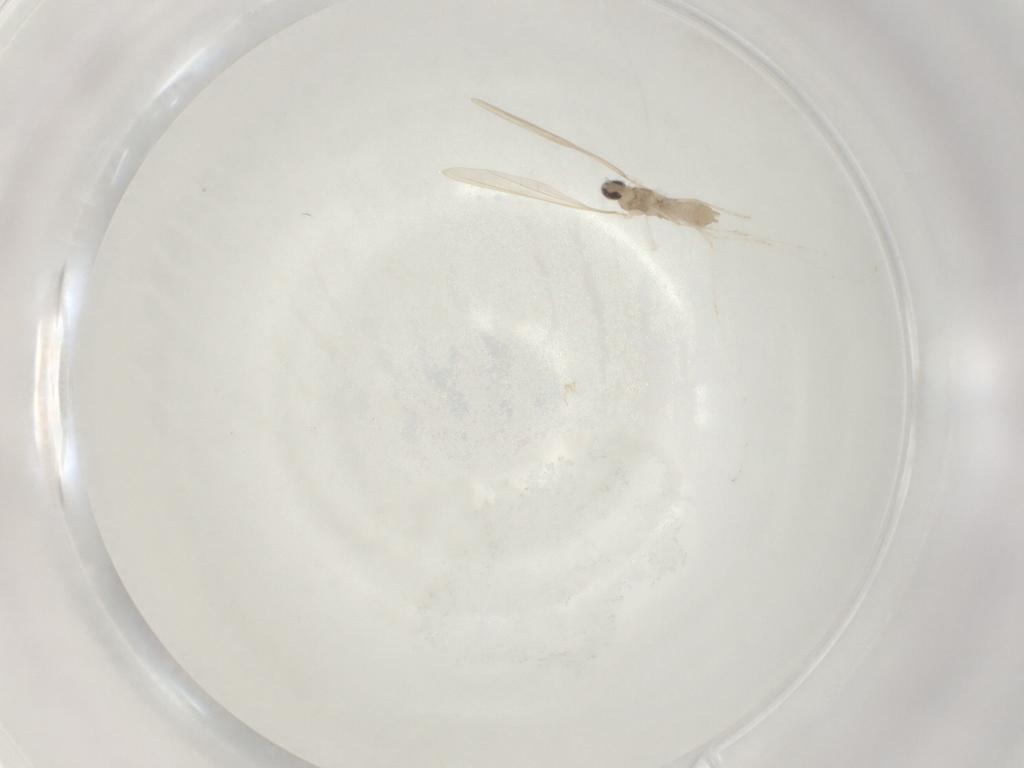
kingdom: Animalia
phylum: Arthropoda
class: Insecta
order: Diptera
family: Cecidomyiidae
